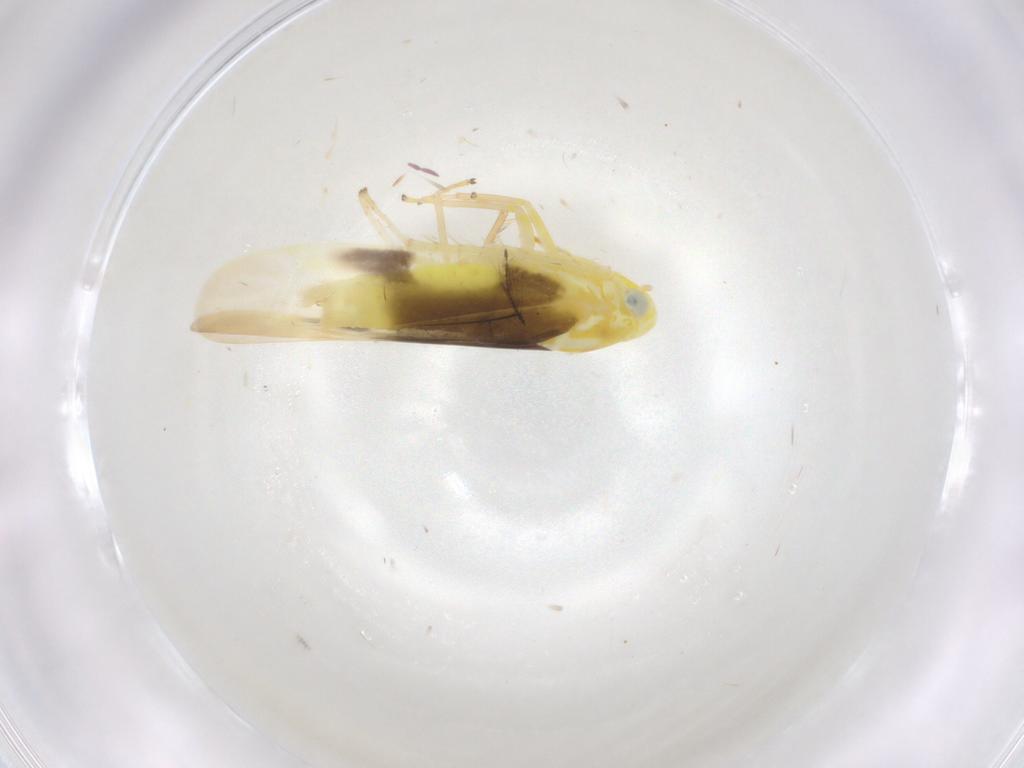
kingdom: Animalia
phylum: Arthropoda
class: Insecta
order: Hemiptera
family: Cicadellidae
